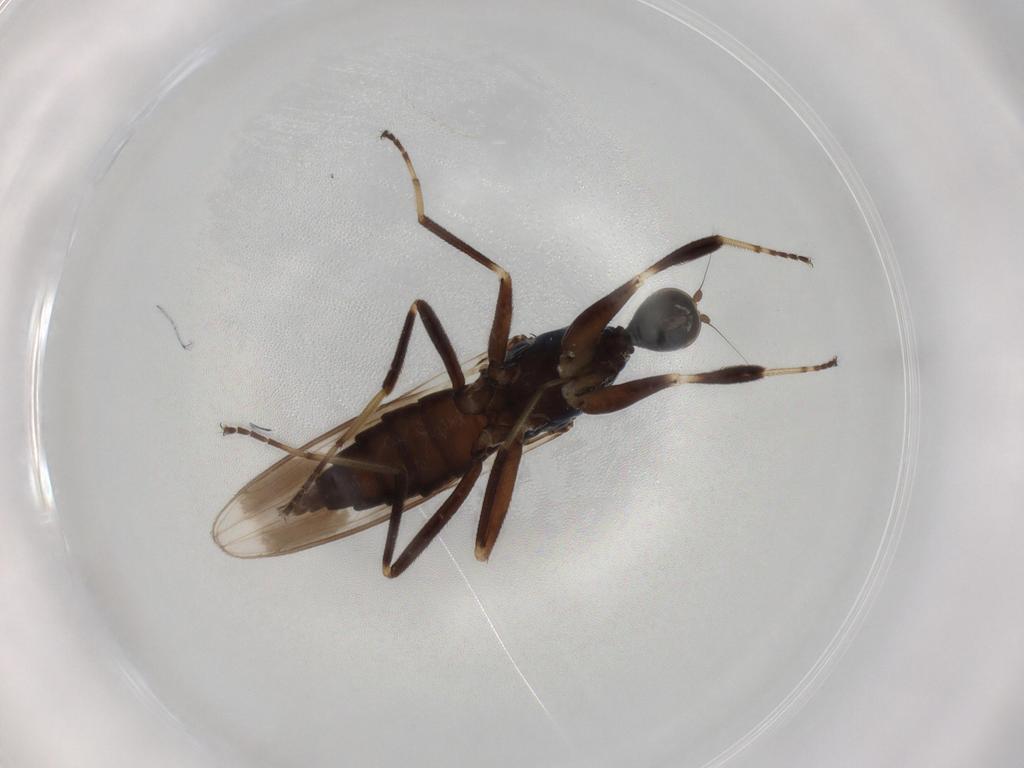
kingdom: Animalia
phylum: Arthropoda
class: Insecta
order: Diptera
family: Hybotidae
